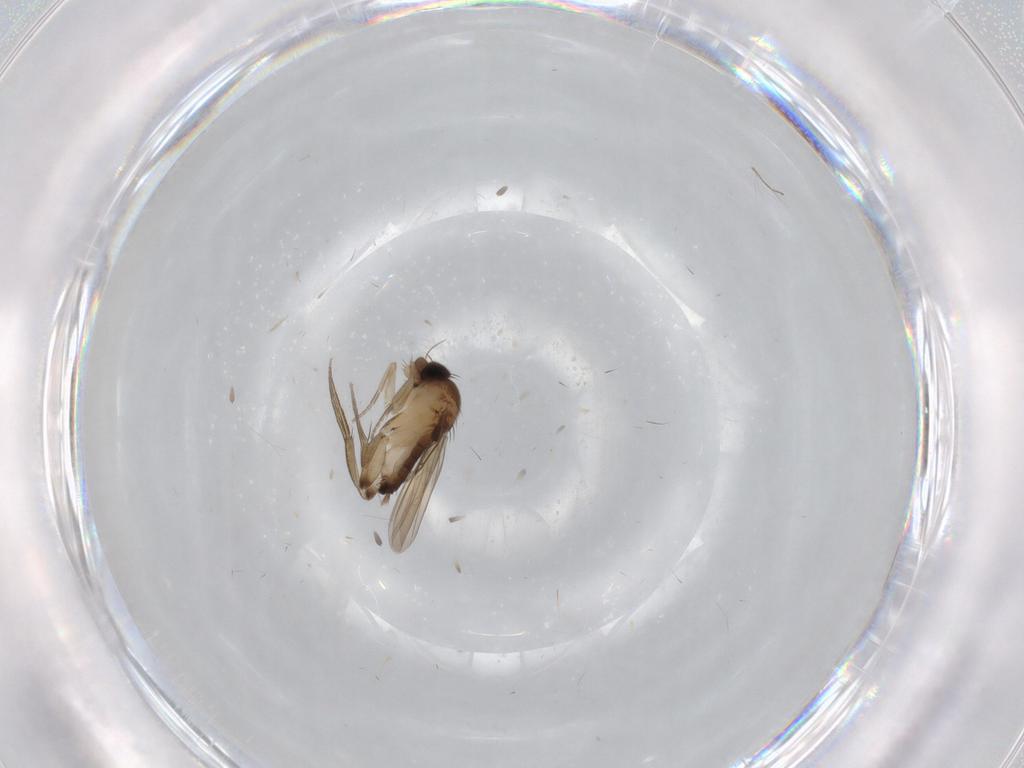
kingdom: Animalia
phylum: Arthropoda
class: Insecta
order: Diptera
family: Phoridae
